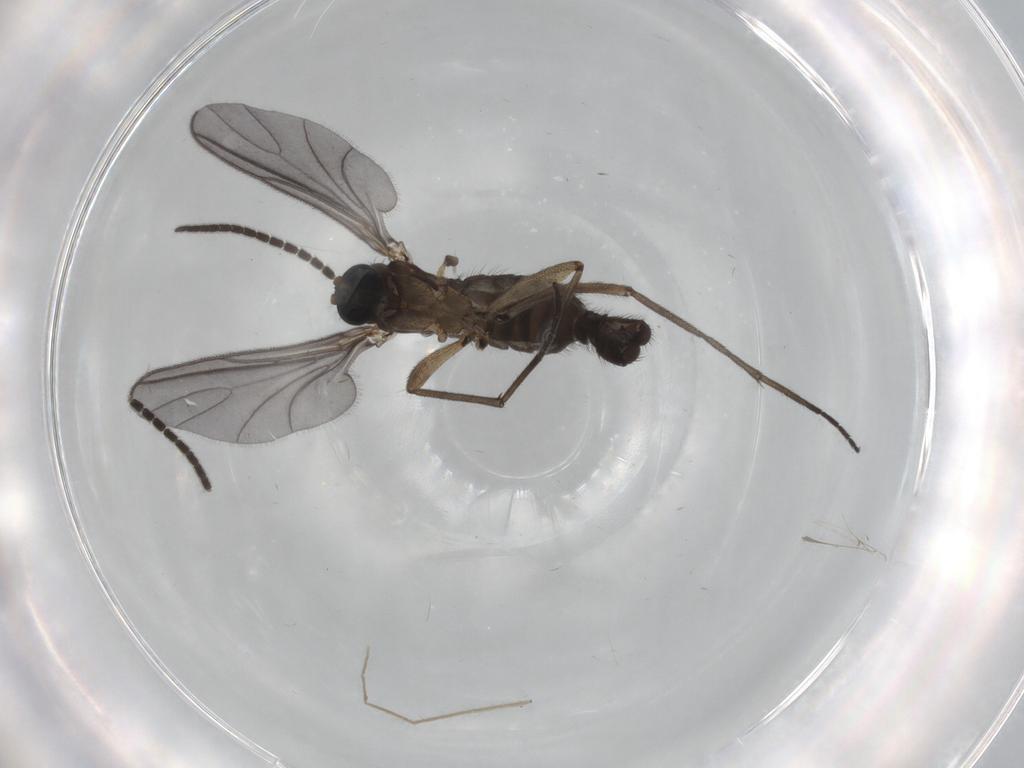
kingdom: Animalia
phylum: Arthropoda
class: Insecta
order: Diptera
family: Sciaridae
